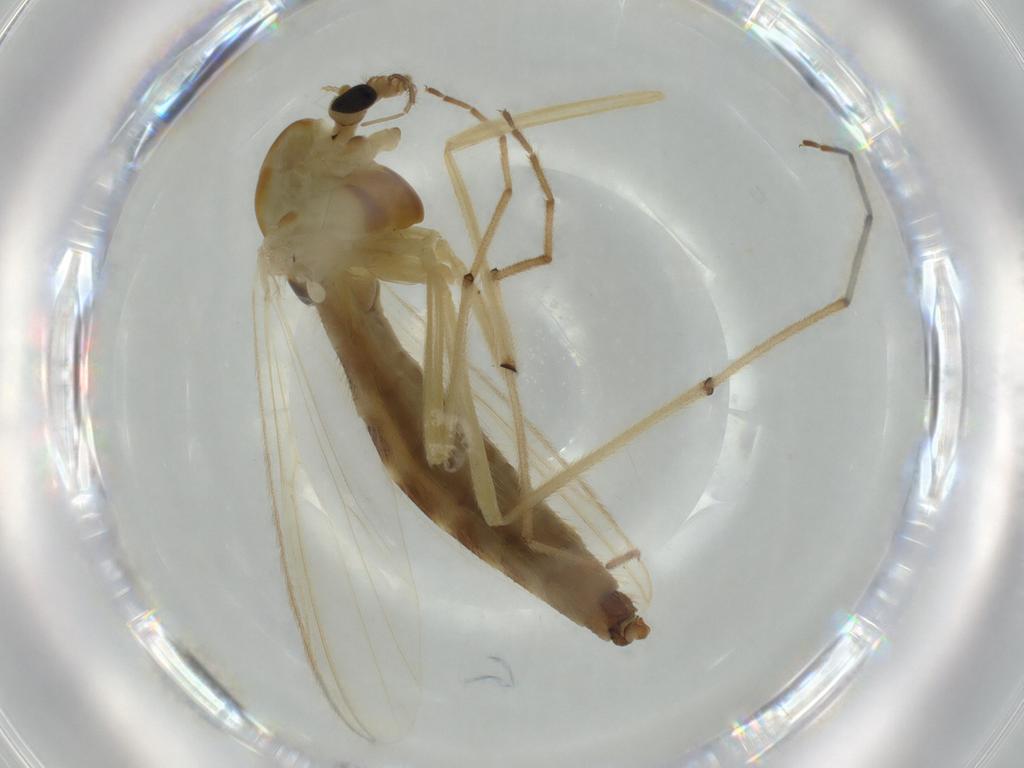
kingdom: Animalia
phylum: Arthropoda
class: Insecta
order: Diptera
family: Chironomidae
